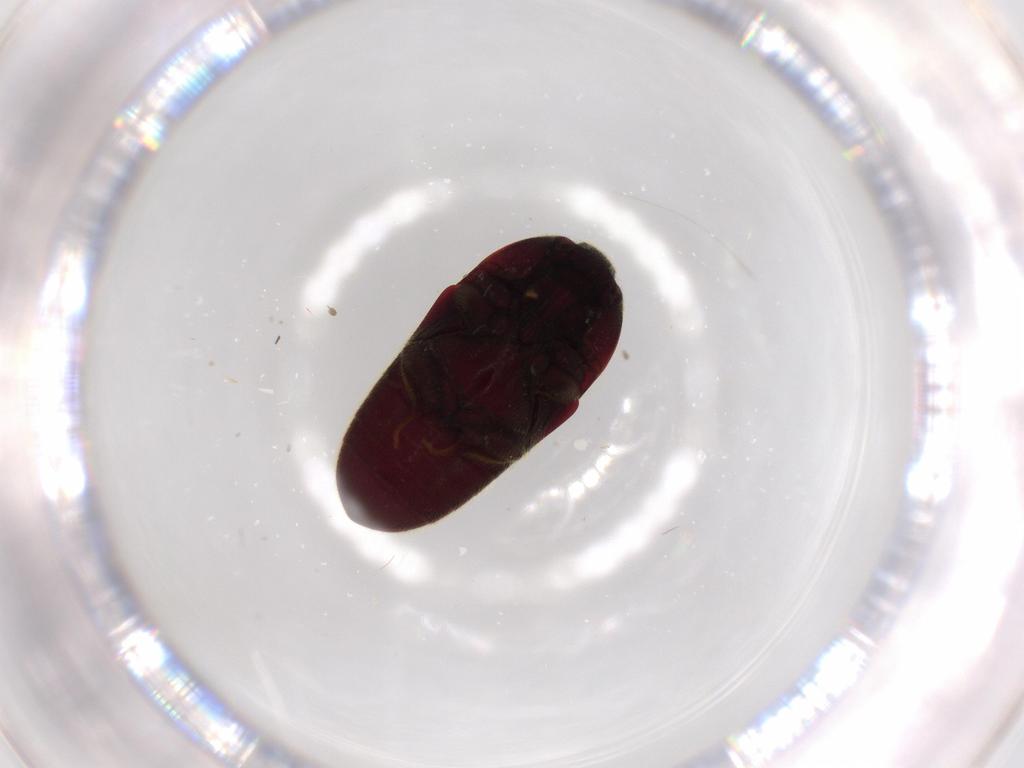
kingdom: Animalia
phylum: Arthropoda
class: Insecta
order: Coleoptera
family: Throscidae
